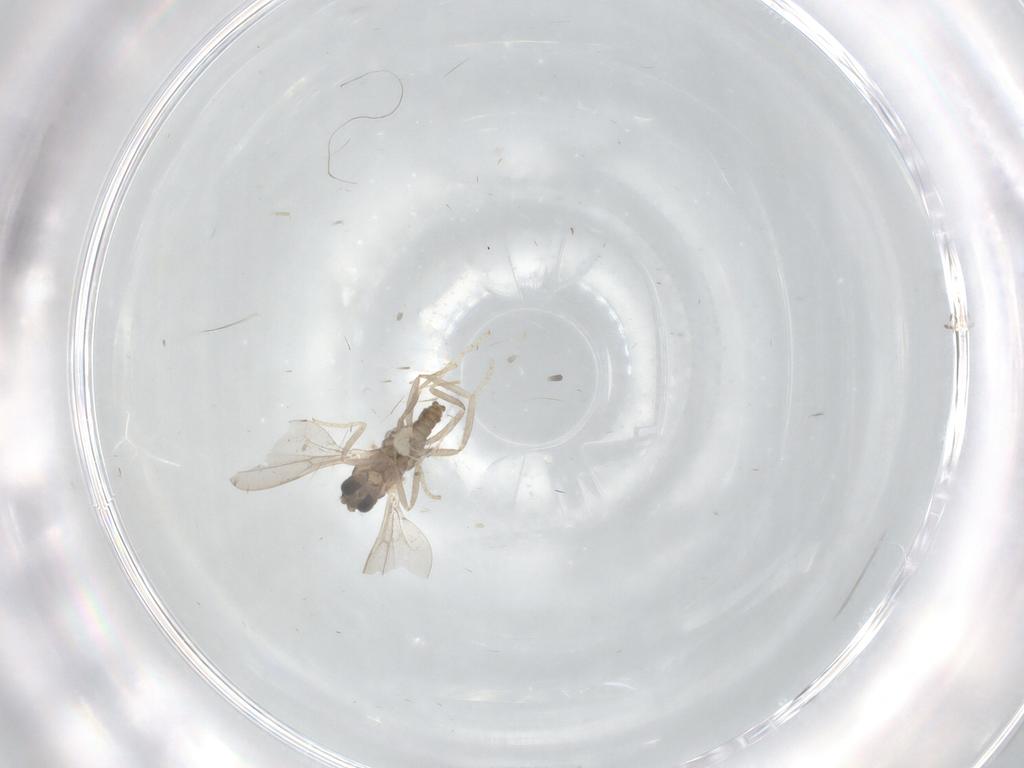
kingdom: Animalia
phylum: Arthropoda
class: Insecta
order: Diptera
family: Cecidomyiidae
